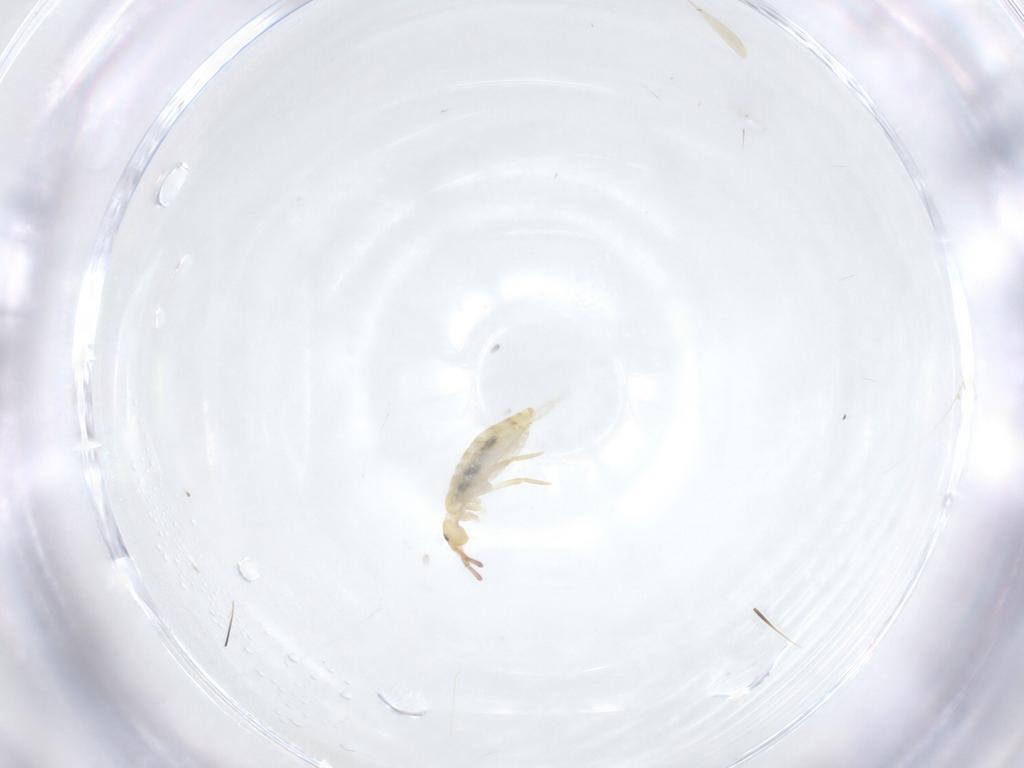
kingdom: Animalia
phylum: Arthropoda
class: Collembola
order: Entomobryomorpha
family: Entomobryidae
